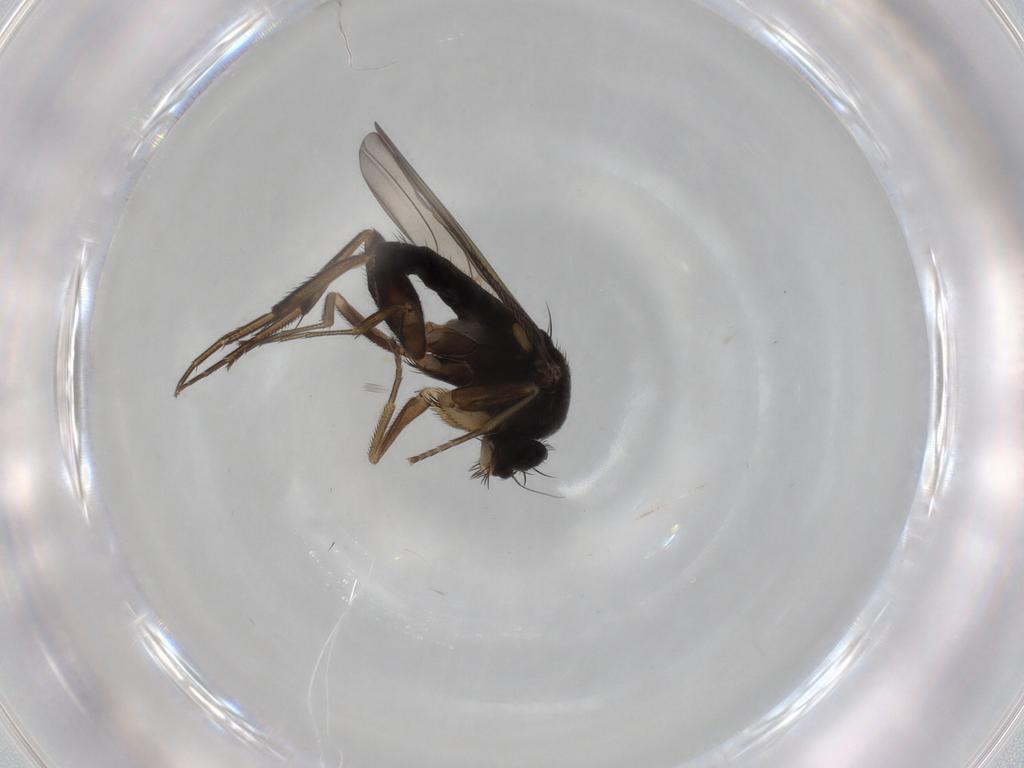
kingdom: Animalia
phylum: Arthropoda
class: Insecta
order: Diptera
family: Phoridae
